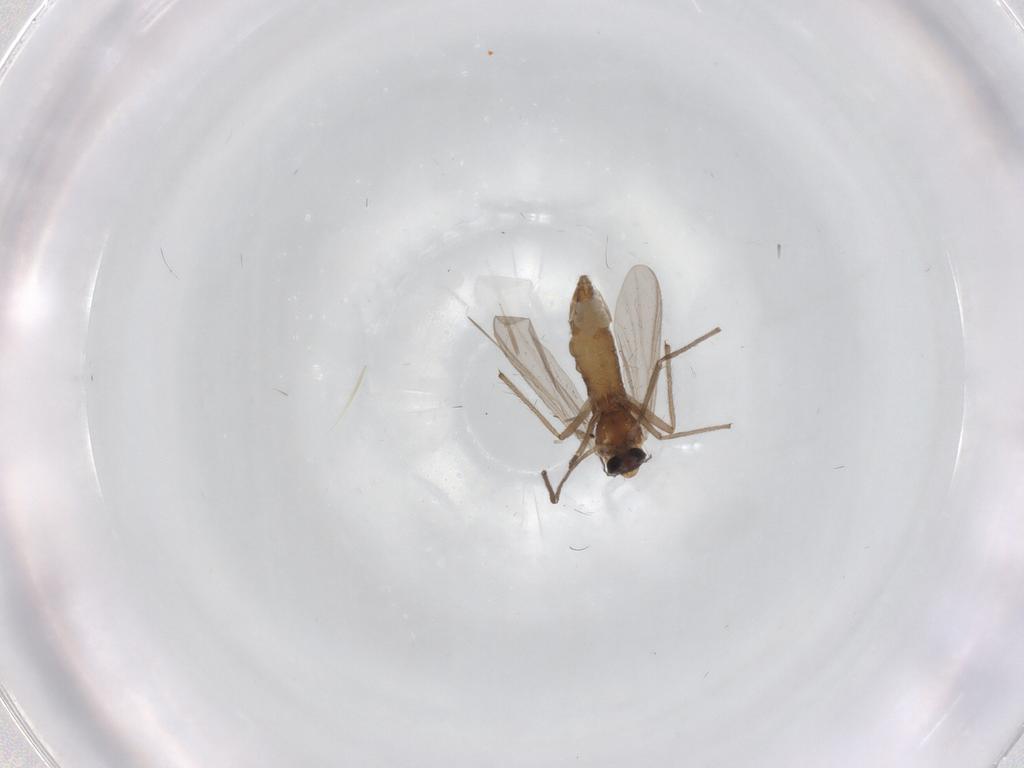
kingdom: Animalia
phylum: Arthropoda
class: Insecta
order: Diptera
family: Chironomidae
